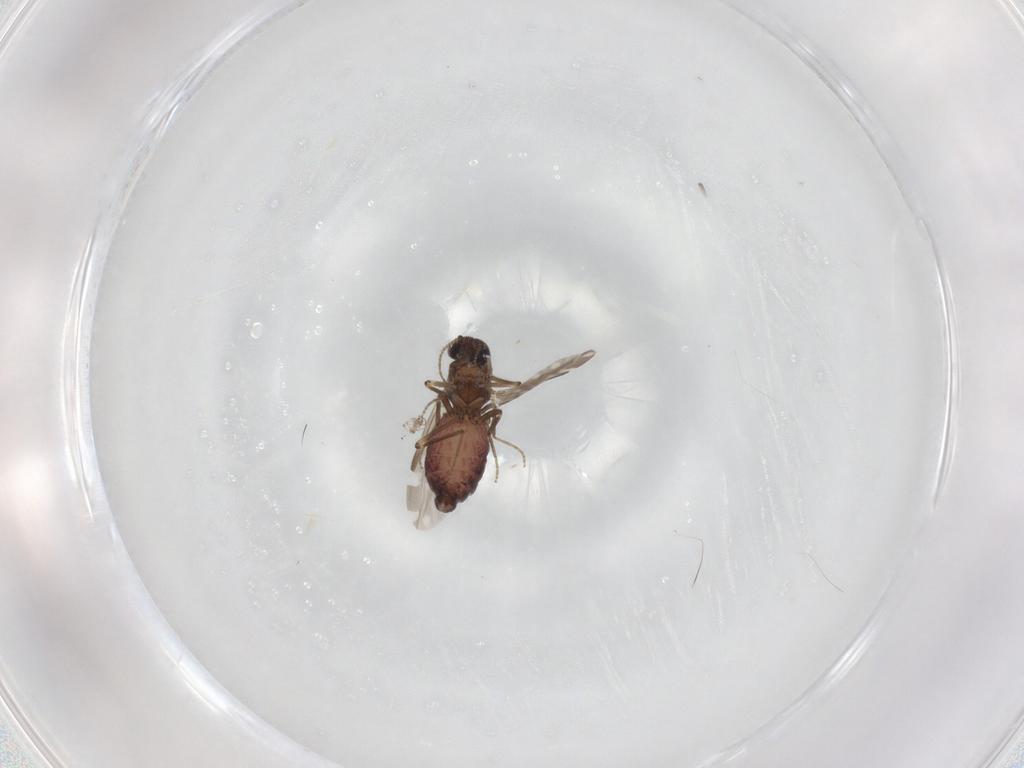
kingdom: Animalia
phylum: Arthropoda
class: Insecta
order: Diptera
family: Ceratopogonidae
